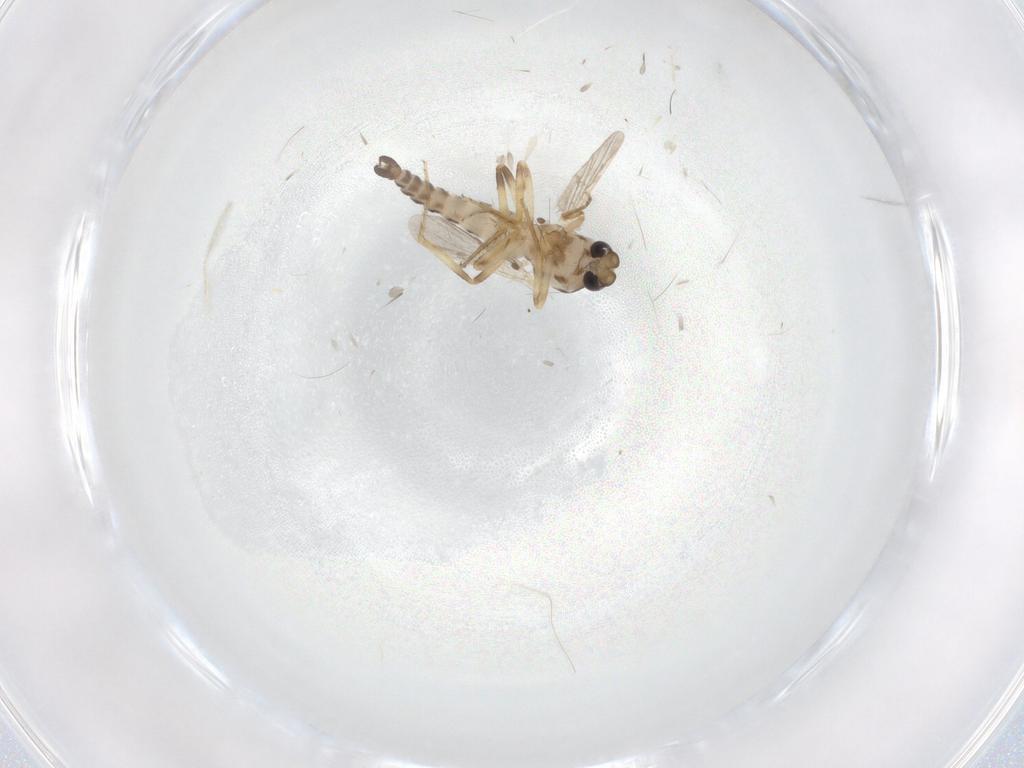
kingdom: Animalia
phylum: Arthropoda
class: Insecta
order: Diptera
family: Ceratopogonidae
